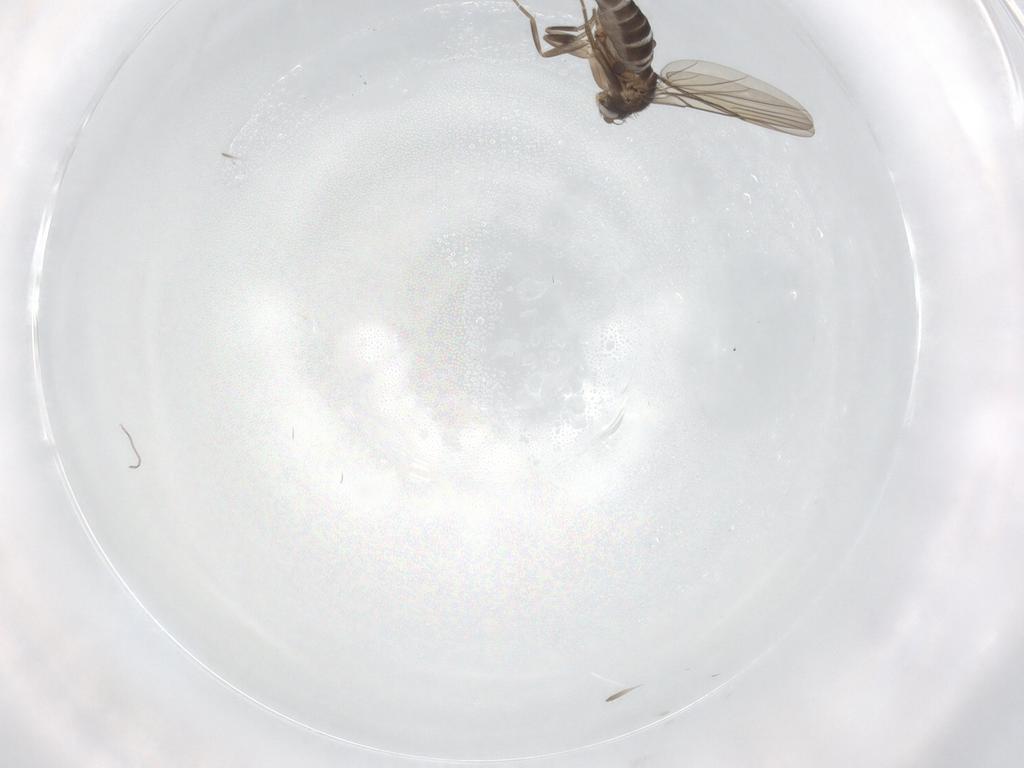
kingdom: Animalia
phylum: Arthropoda
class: Insecta
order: Diptera
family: Phoridae
